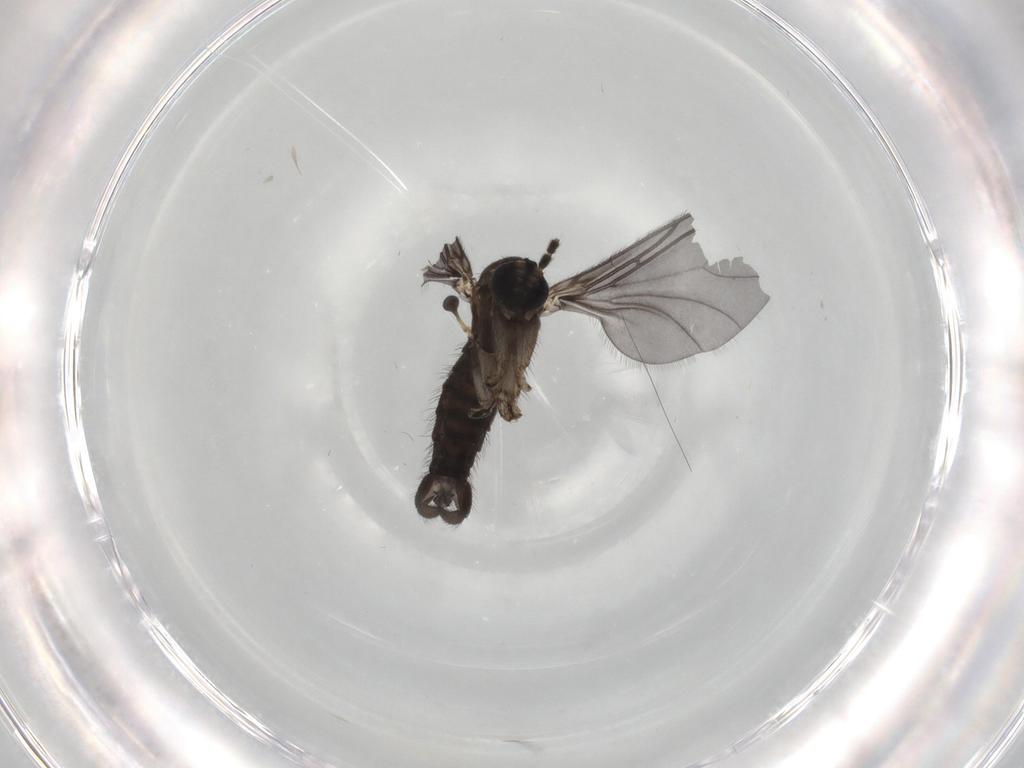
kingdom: Animalia
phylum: Arthropoda
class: Insecta
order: Diptera
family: Sciaridae
